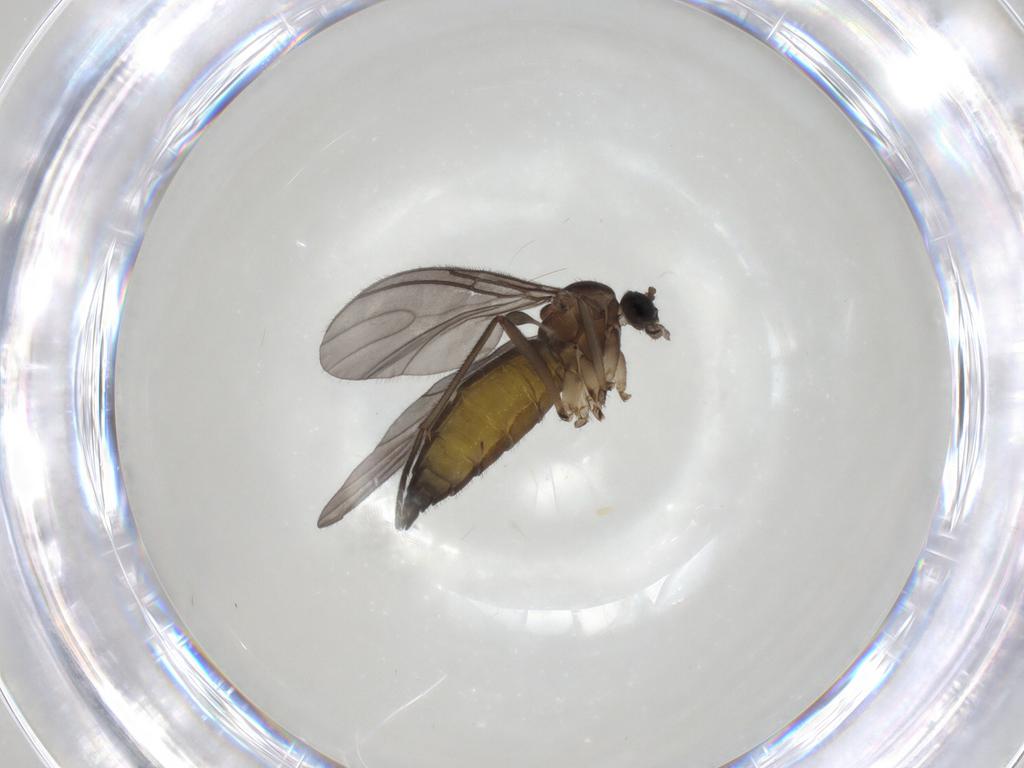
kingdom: Animalia
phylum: Arthropoda
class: Insecta
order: Diptera
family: Sciaridae
